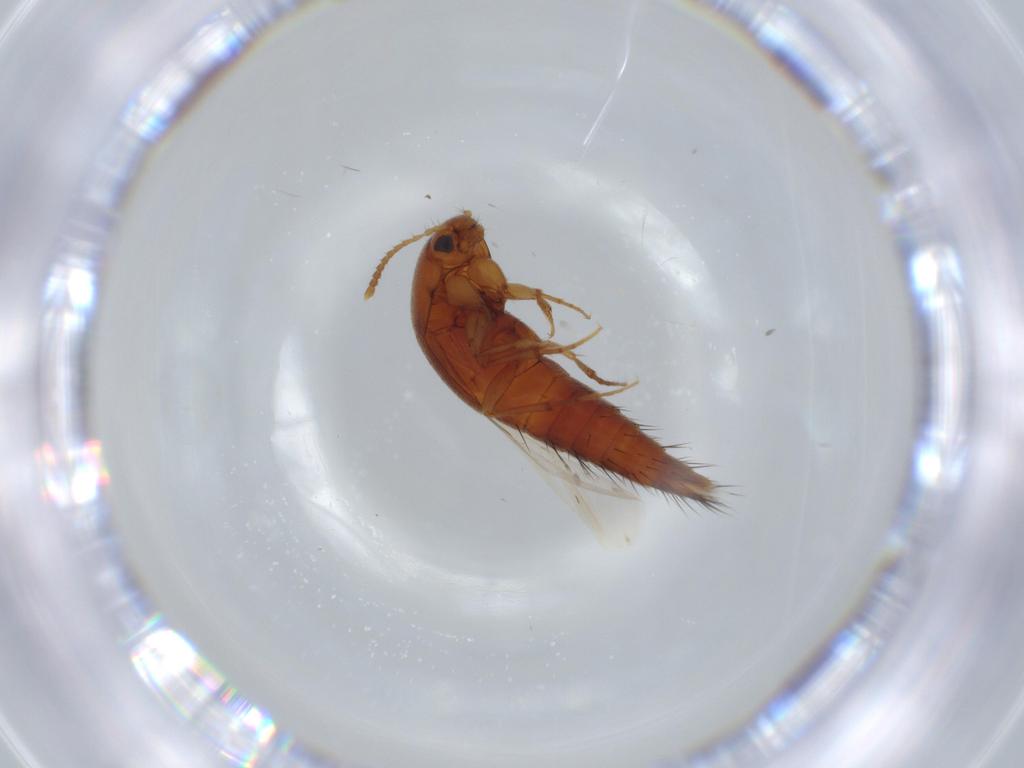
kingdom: Animalia
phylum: Arthropoda
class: Insecta
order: Coleoptera
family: Staphylinidae
